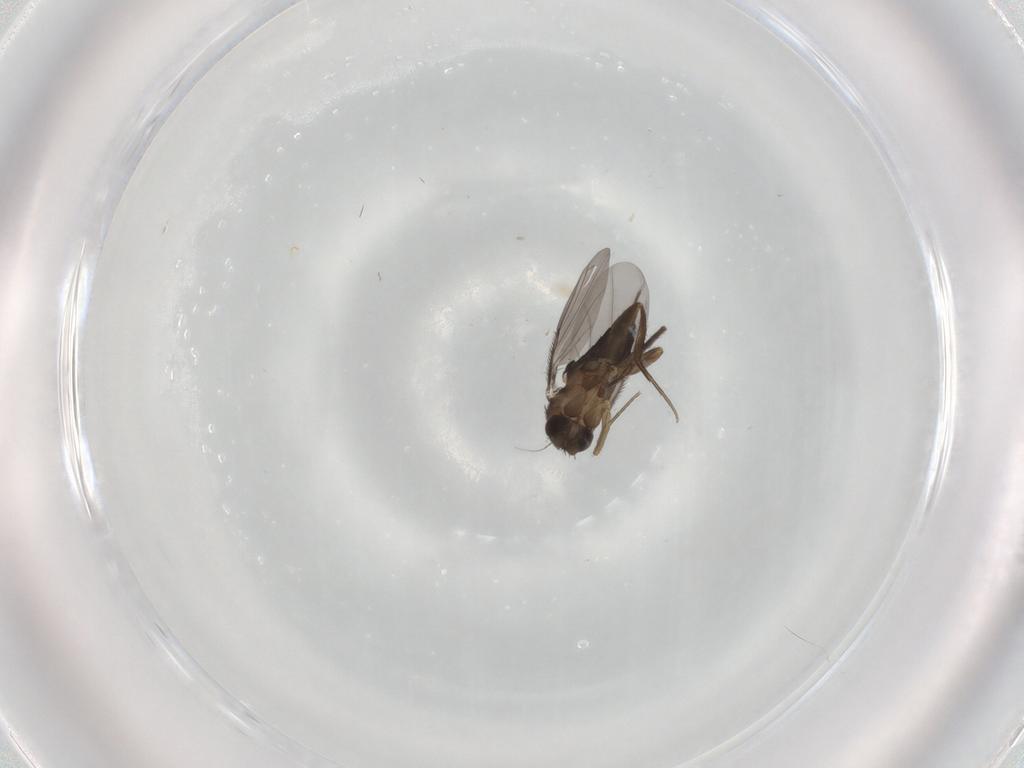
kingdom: Animalia
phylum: Arthropoda
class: Insecta
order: Diptera
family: Phoridae
